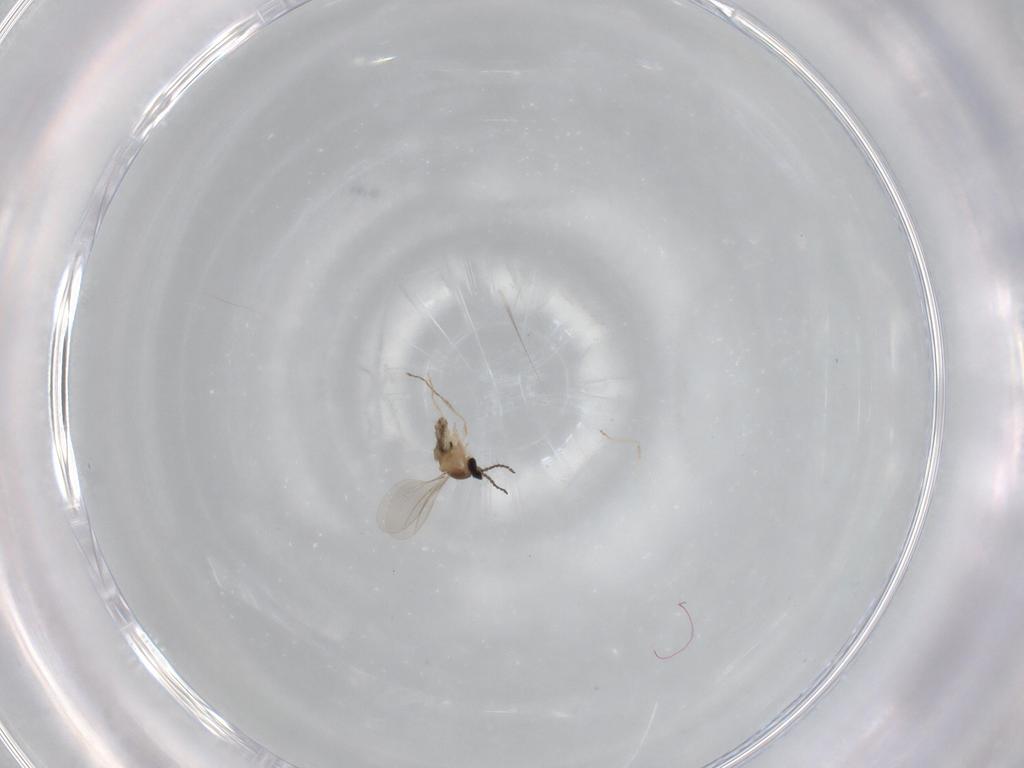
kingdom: Animalia
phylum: Arthropoda
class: Insecta
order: Diptera
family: Cecidomyiidae
